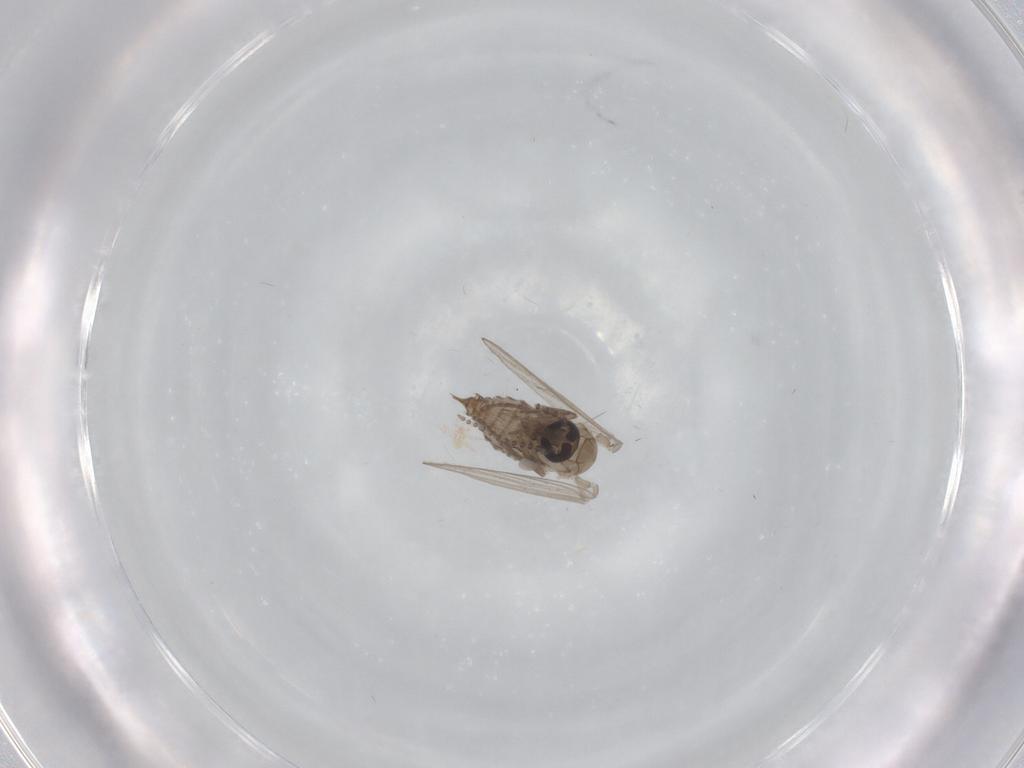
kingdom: Animalia
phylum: Arthropoda
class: Insecta
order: Diptera
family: Psychodidae
